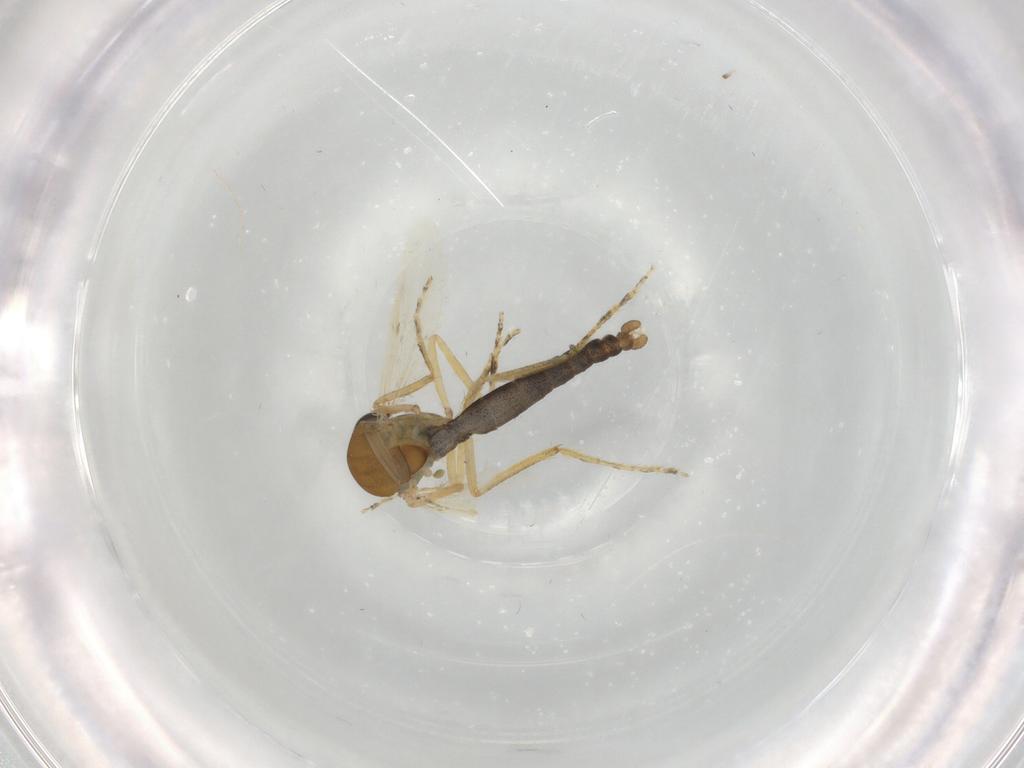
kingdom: Animalia
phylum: Arthropoda
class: Insecta
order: Diptera
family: Ceratopogonidae
